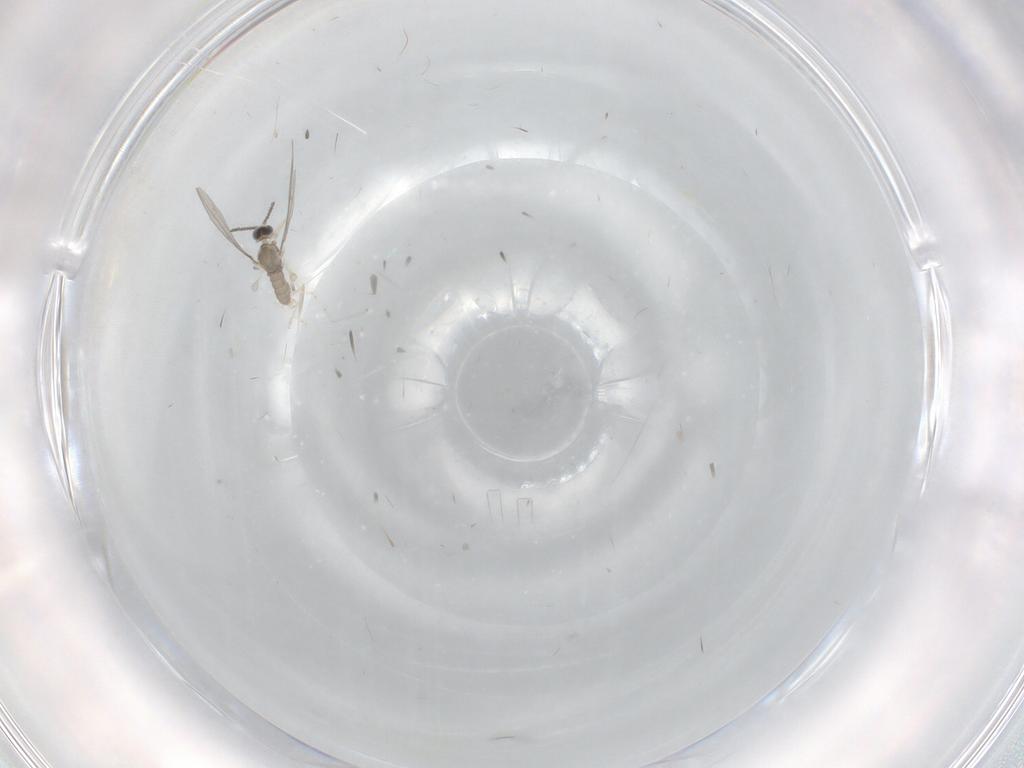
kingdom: Animalia
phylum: Arthropoda
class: Insecta
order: Diptera
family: Cecidomyiidae
